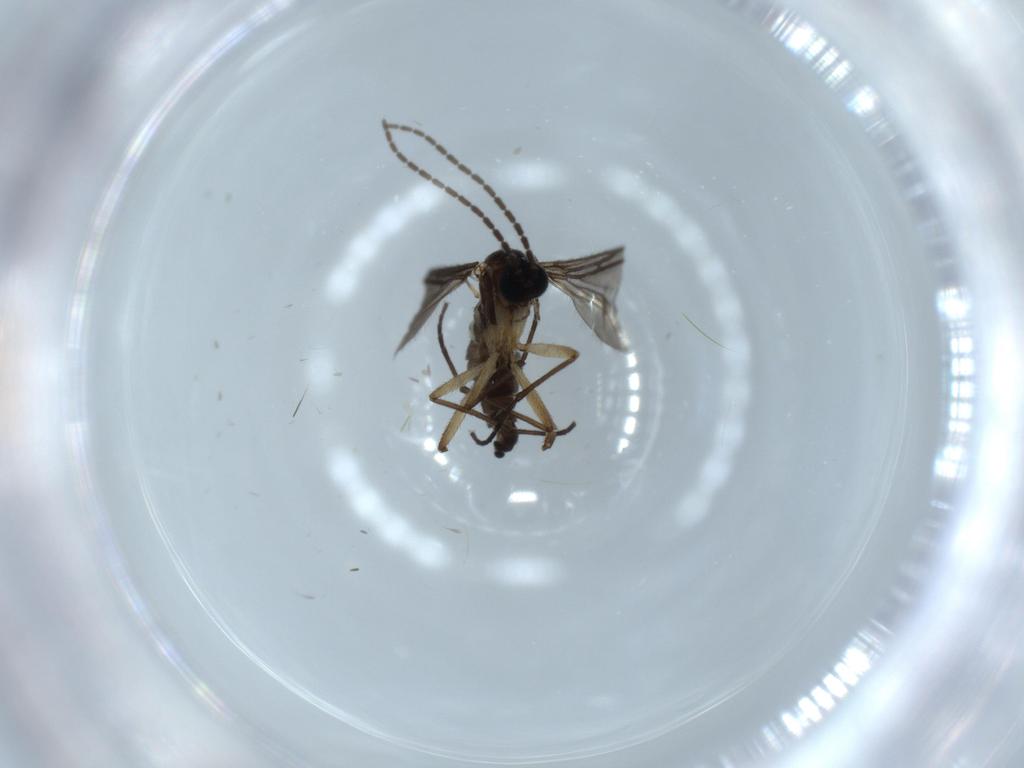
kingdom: Animalia
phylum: Arthropoda
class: Insecta
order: Diptera
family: Sciaridae
